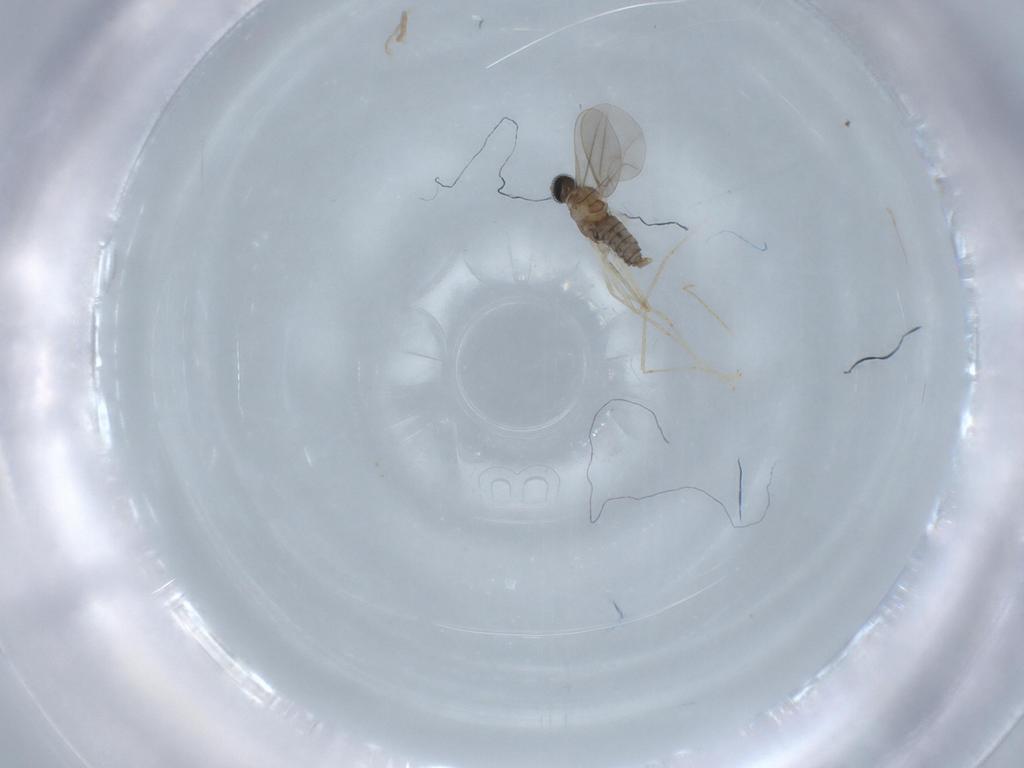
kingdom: Animalia
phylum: Arthropoda
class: Insecta
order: Diptera
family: Cecidomyiidae
